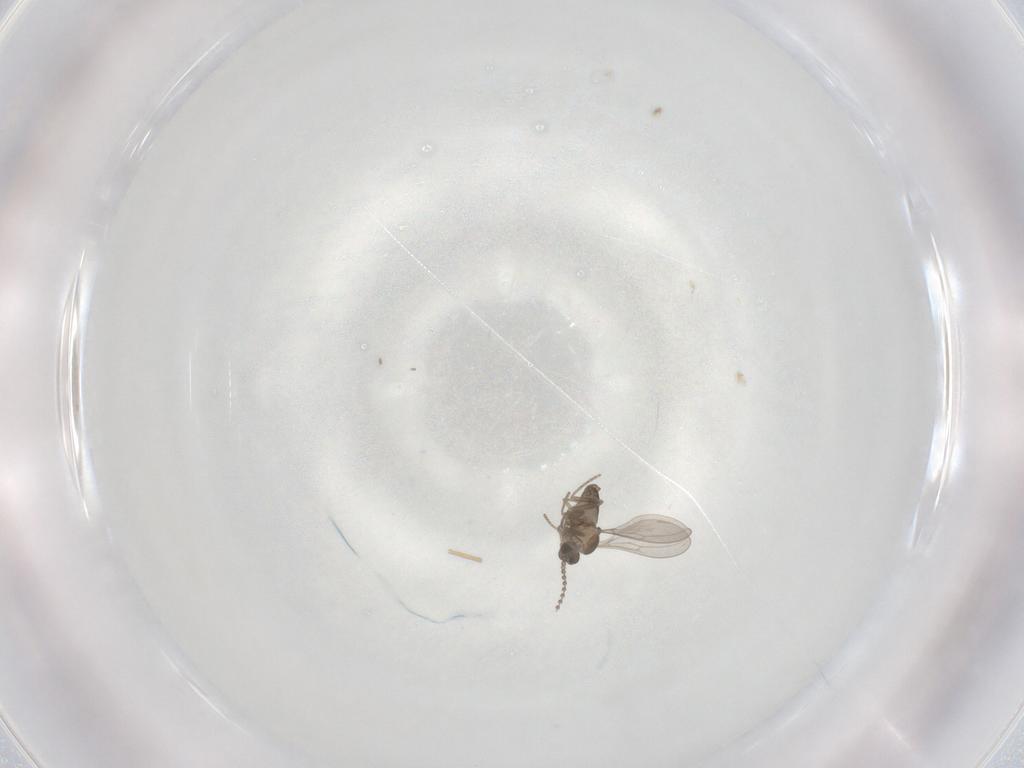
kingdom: Animalia
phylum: Arthropoda
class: Insecta
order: Diptera
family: Cecidomyiidae
